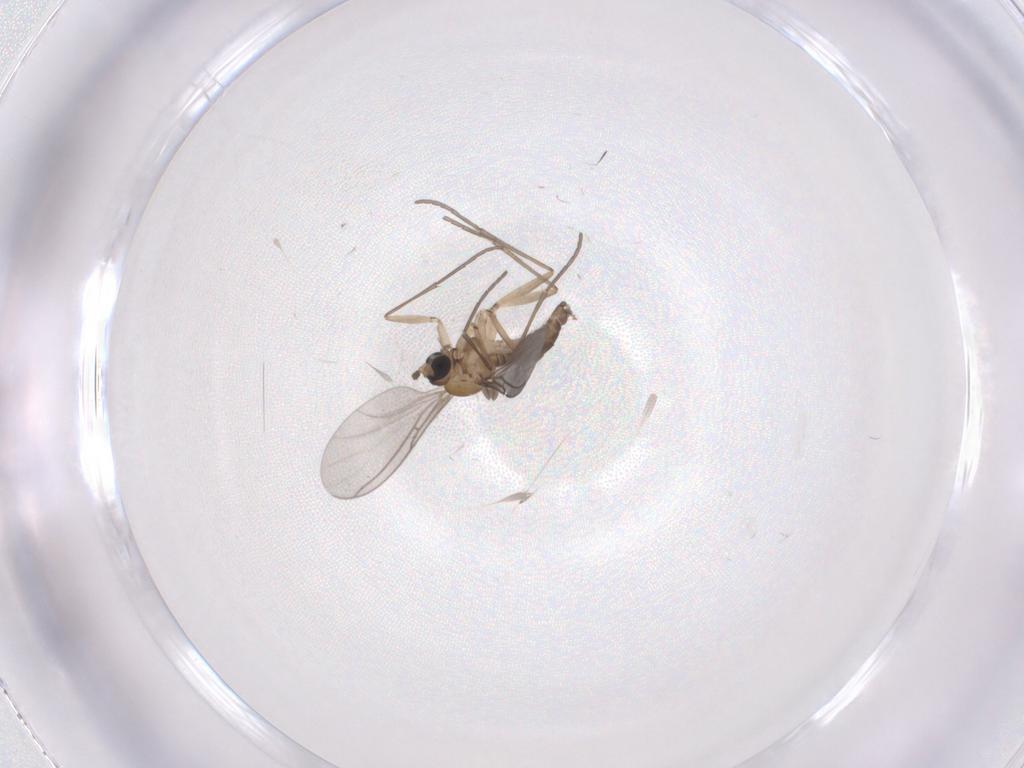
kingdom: Animalia
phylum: Arthropoda
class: Insecta
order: Diptera
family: Sciaridae
